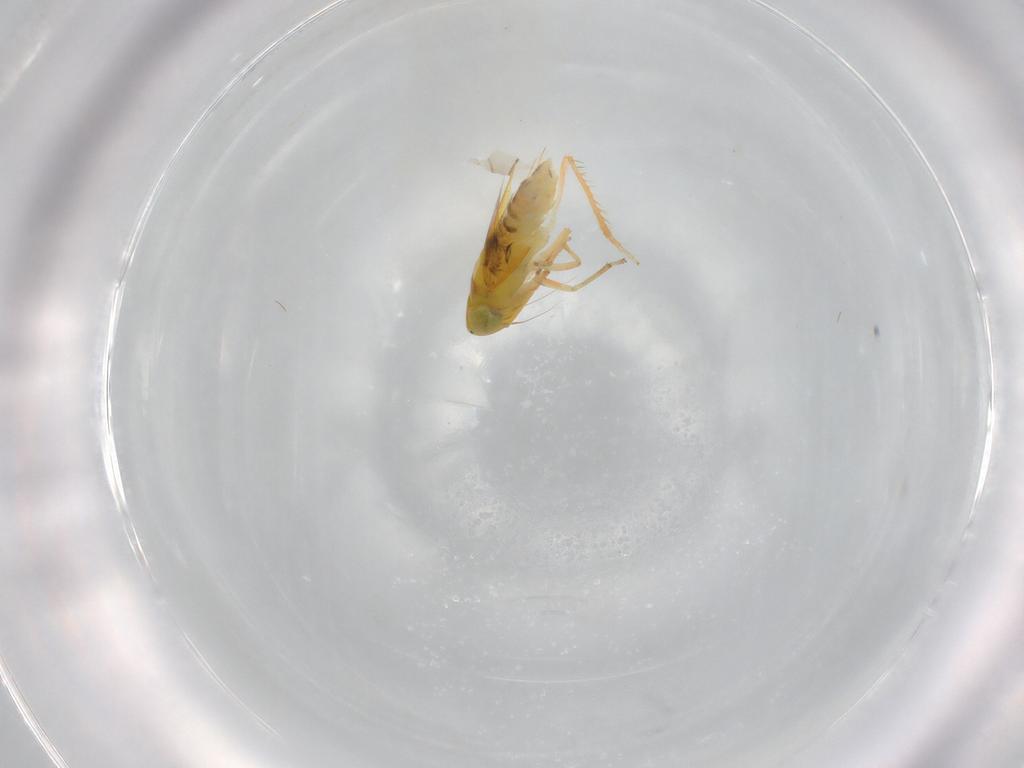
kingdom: Animalia
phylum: Arthropoda
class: Insecta
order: Hemiptera
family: Cicadellidae
